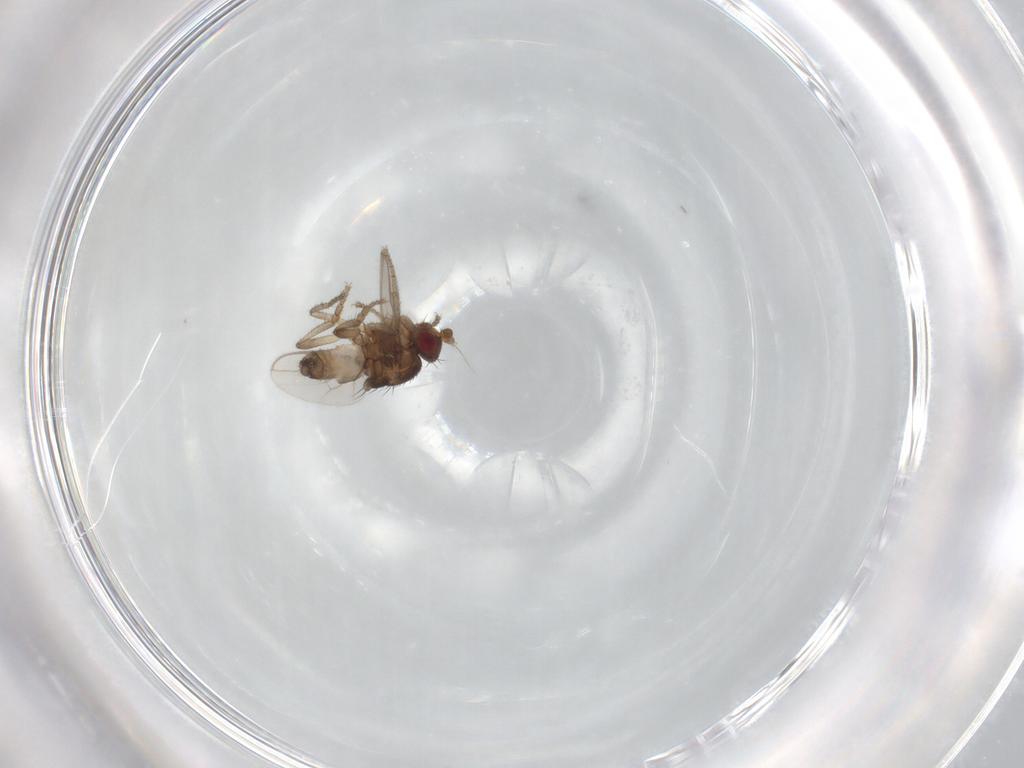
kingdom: Animalia
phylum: Arthropoda
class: Insecta
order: Diptera
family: Sphaeroceridae
